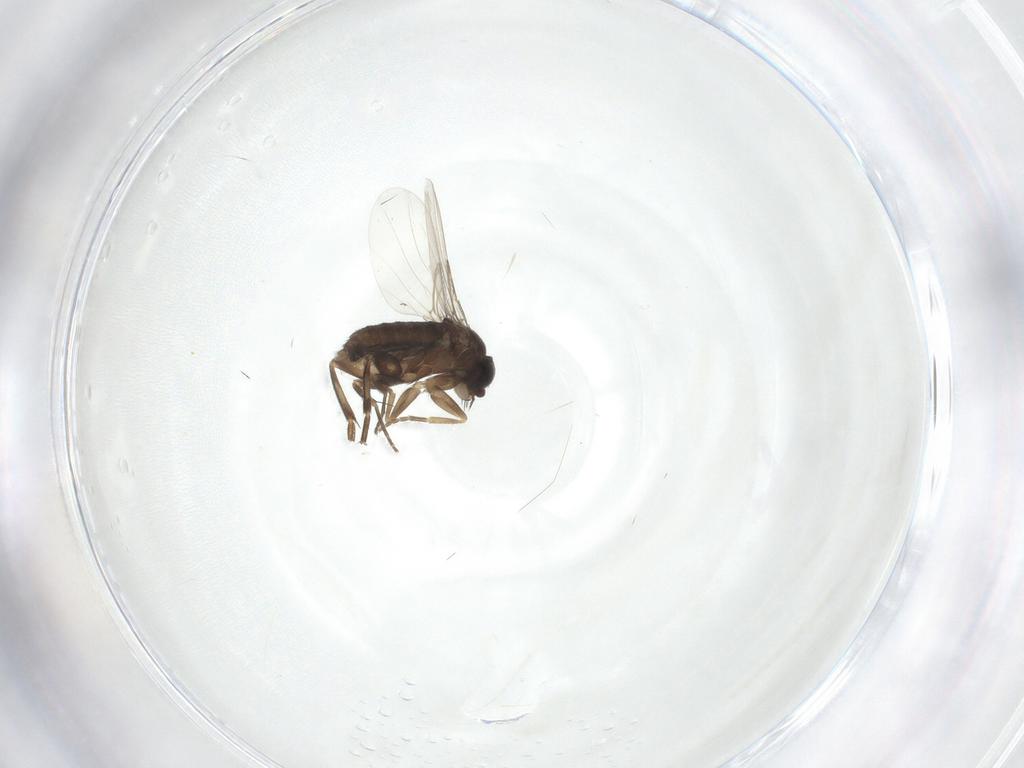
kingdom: Animalia
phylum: Arthropoda
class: Insecta
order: Diptera
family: Phoridae
